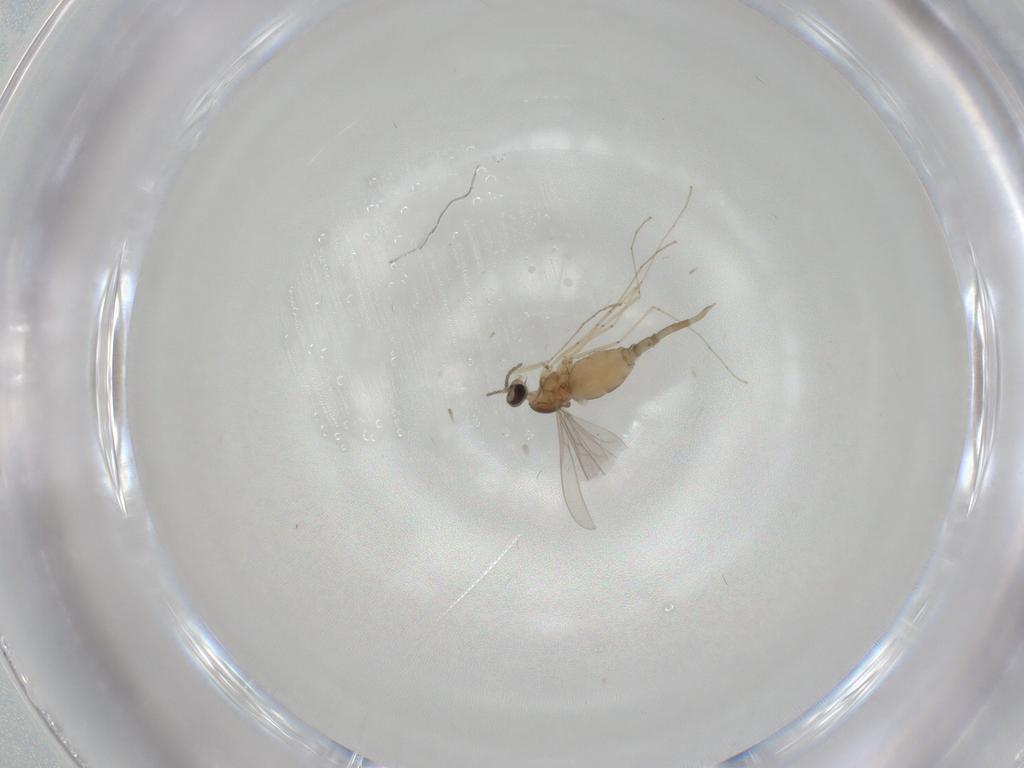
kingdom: Animalia
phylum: Arthropoda
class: Insecta
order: Diptera
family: Cecidomyiidae
